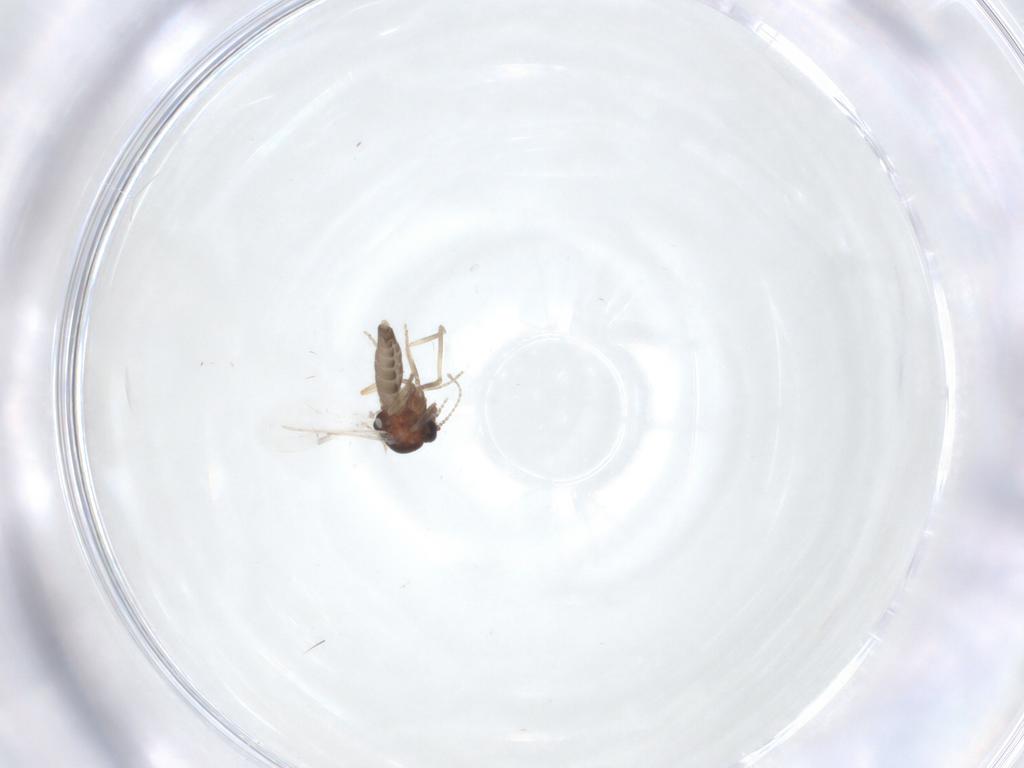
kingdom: Animalia
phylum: Arthropoda
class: Insecta
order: Diptera
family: Ceratopogonidae
